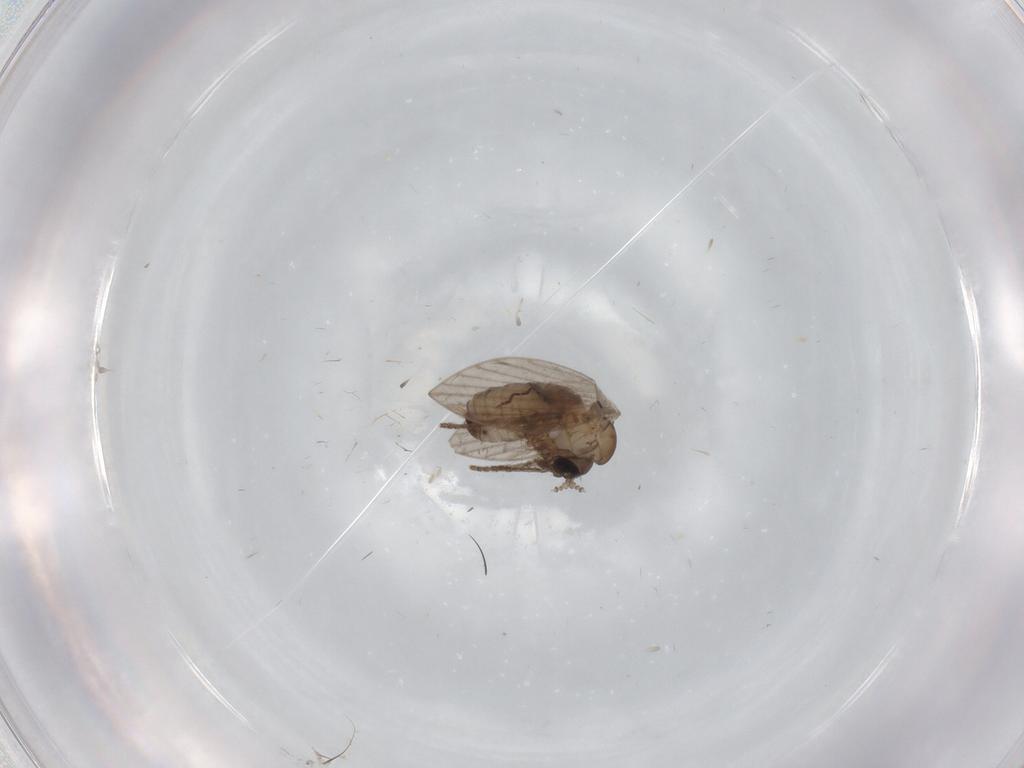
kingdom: Animalia
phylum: Arthropoda
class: Insecta
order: Diptera
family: Psychodidae
